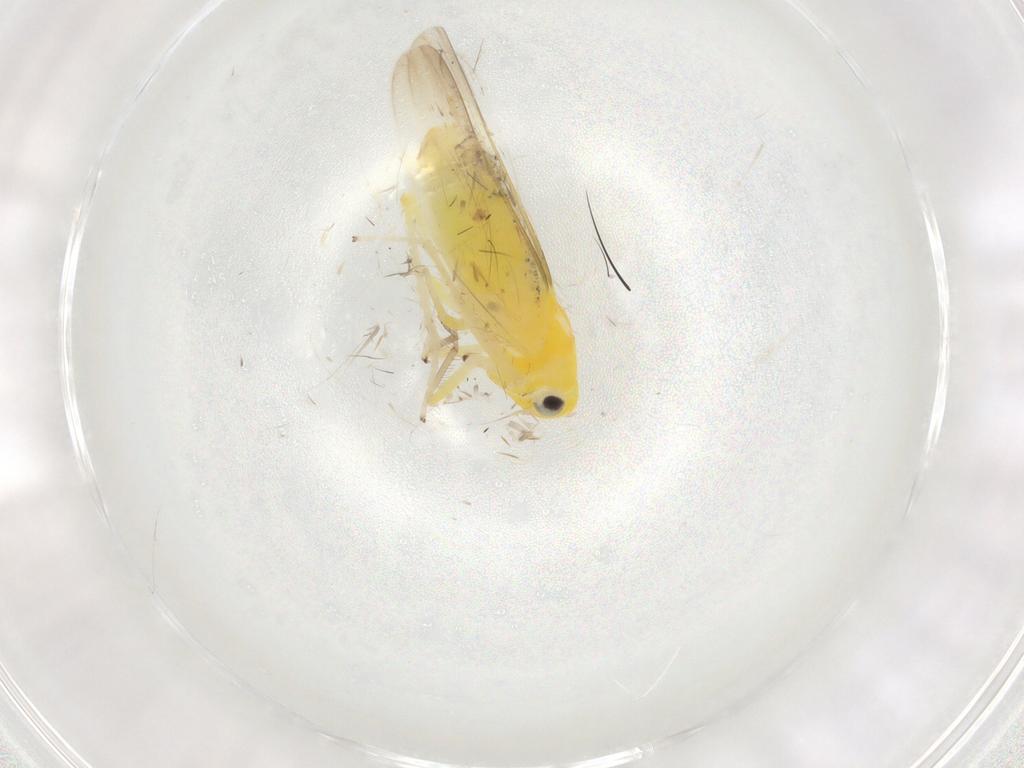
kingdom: Animalia
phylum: Arthropoda
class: Insecta
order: Hemiptera
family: Cicadellidae
